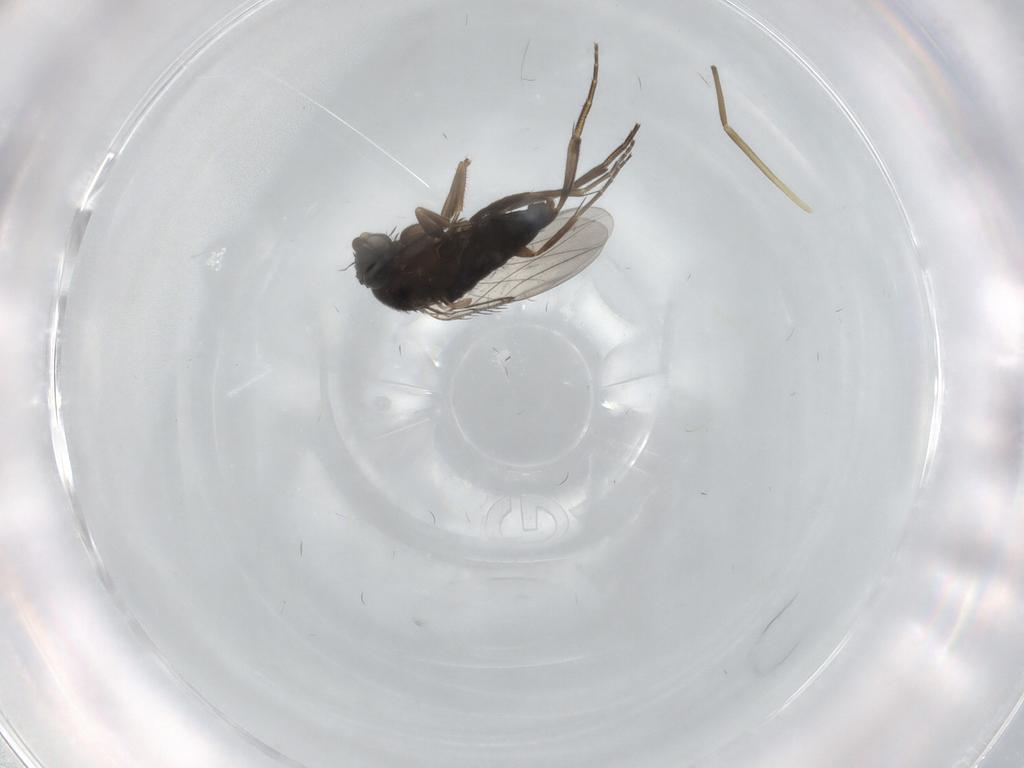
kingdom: Animalia
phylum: Arthropoda
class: Insecta
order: Diptera
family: Phoridae
